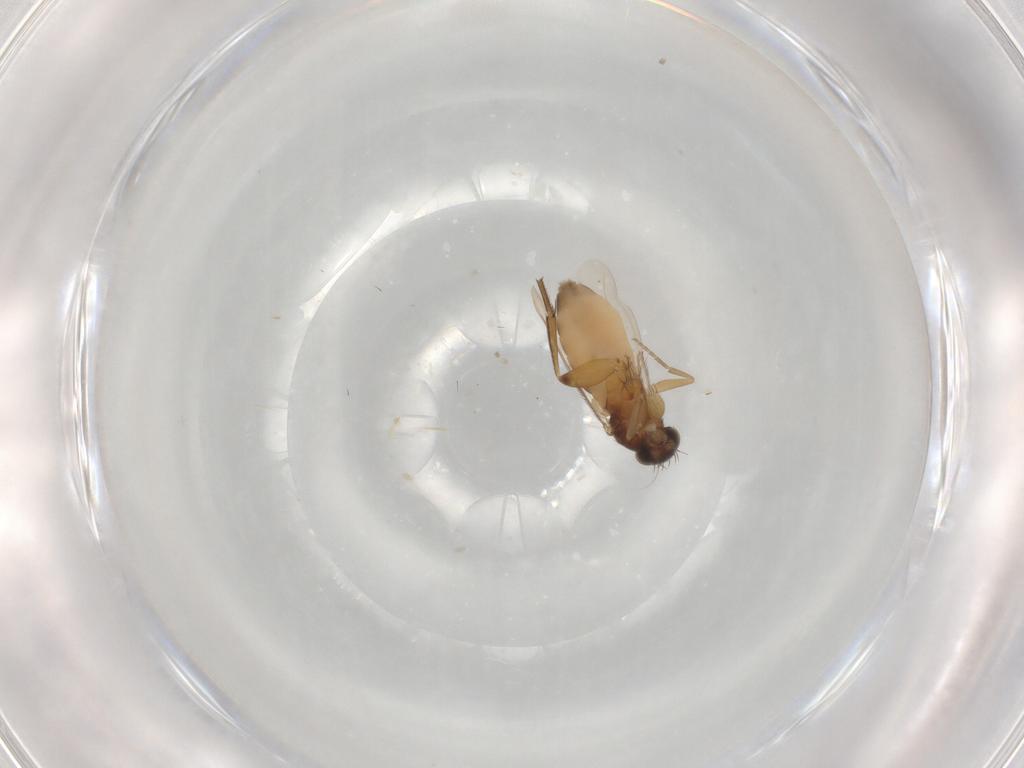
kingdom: Animalia
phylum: Arthropoda
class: Insecta
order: Diptera
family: Phoridae
